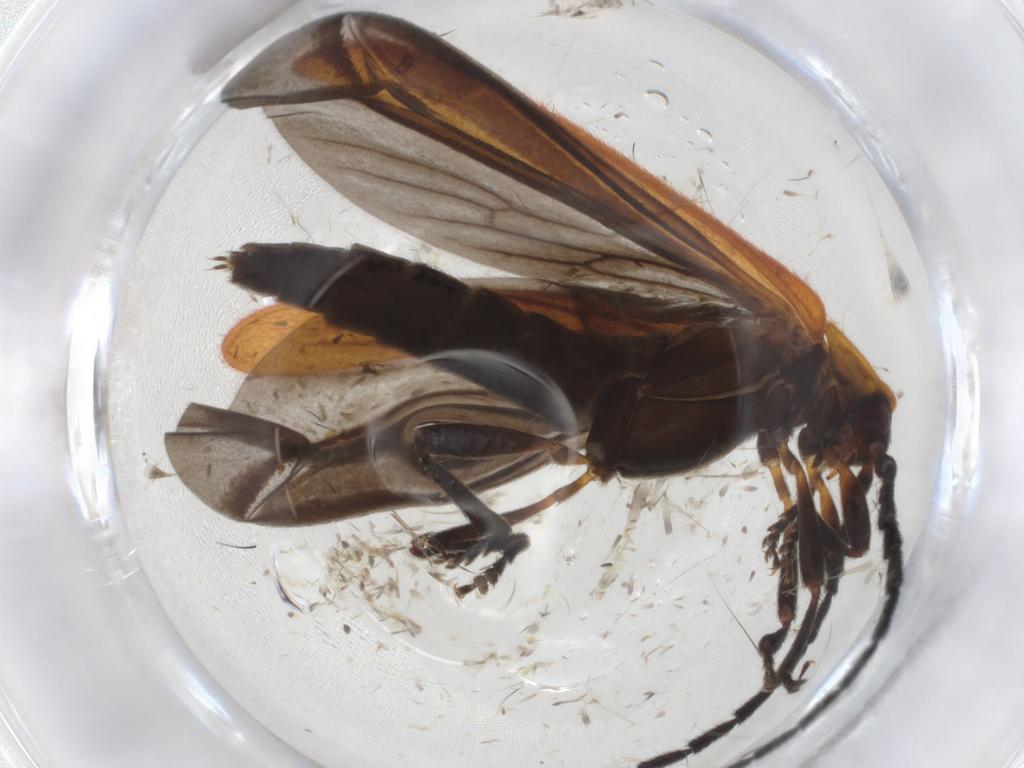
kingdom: Animalia
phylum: Arthropoda
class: Insecta
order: Coleoptera
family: Lycidae
